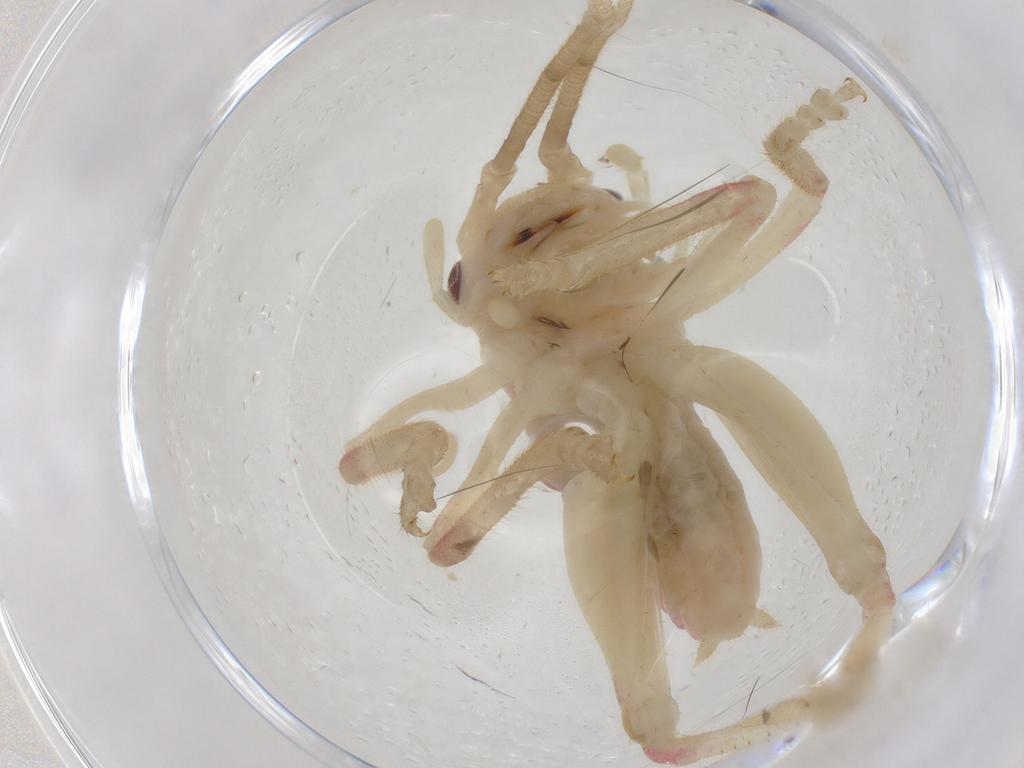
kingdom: Animalia
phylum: Arthropoda
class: Insecta
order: Orthoptera
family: Gryllacrididae
